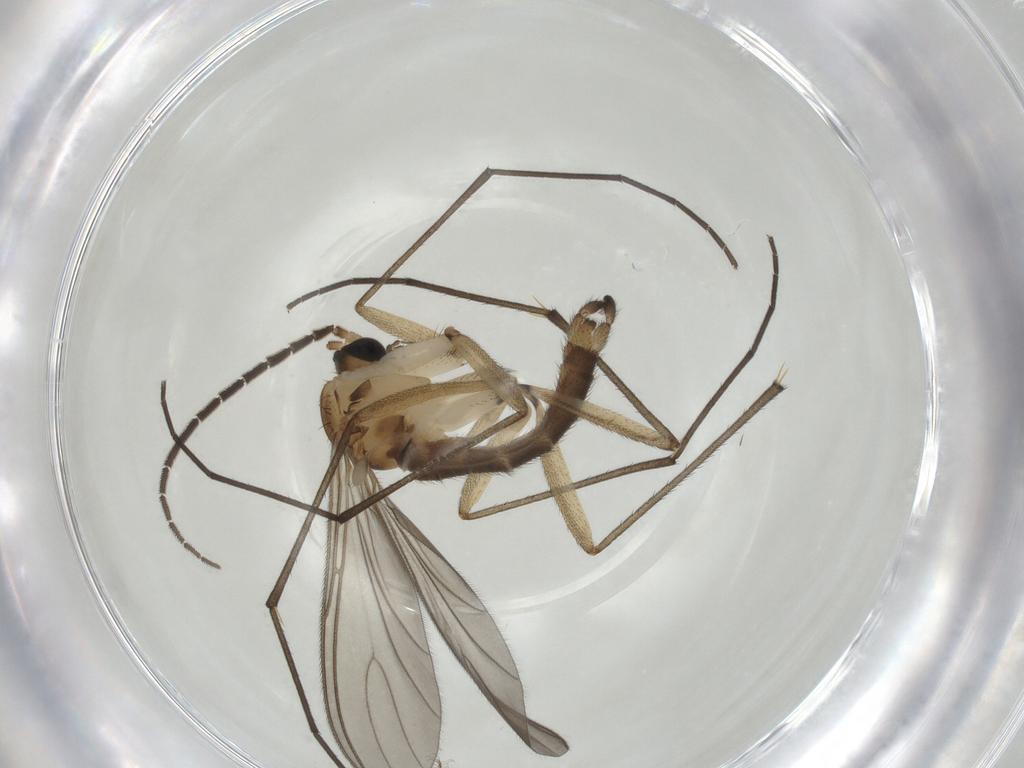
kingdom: Animalia
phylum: Arthropoda
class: Insecta
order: Diptera
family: Sciaridae
